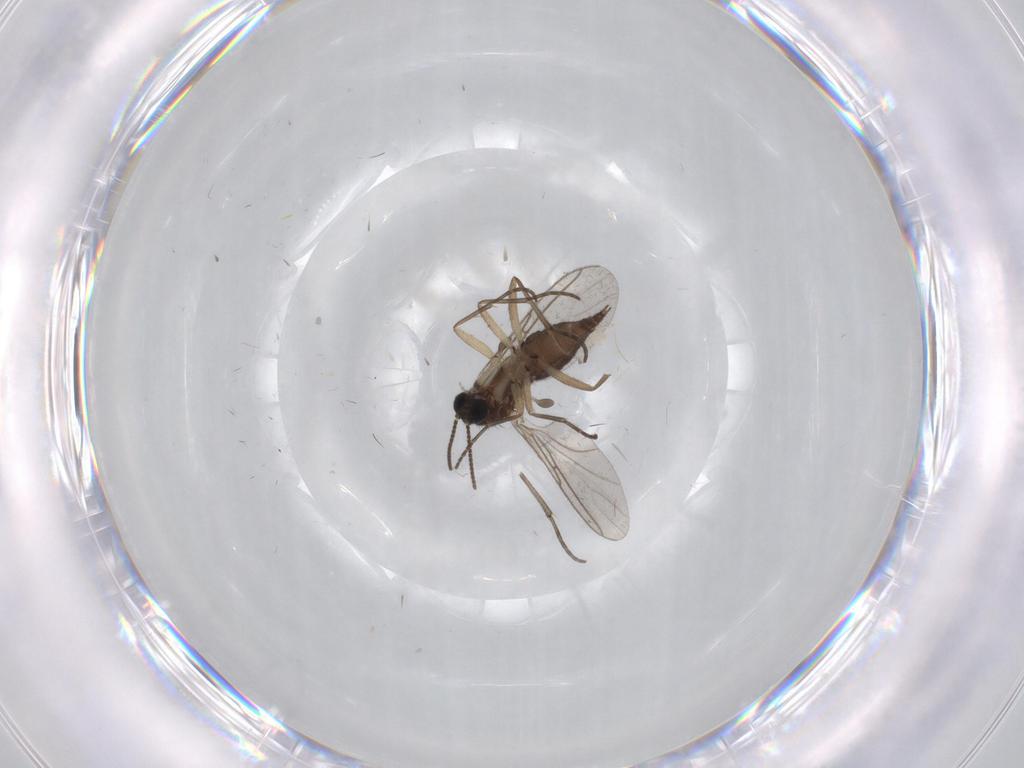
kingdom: Animalia
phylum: Arthropoda
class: Insecta
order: Diptera
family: Sciaridae
